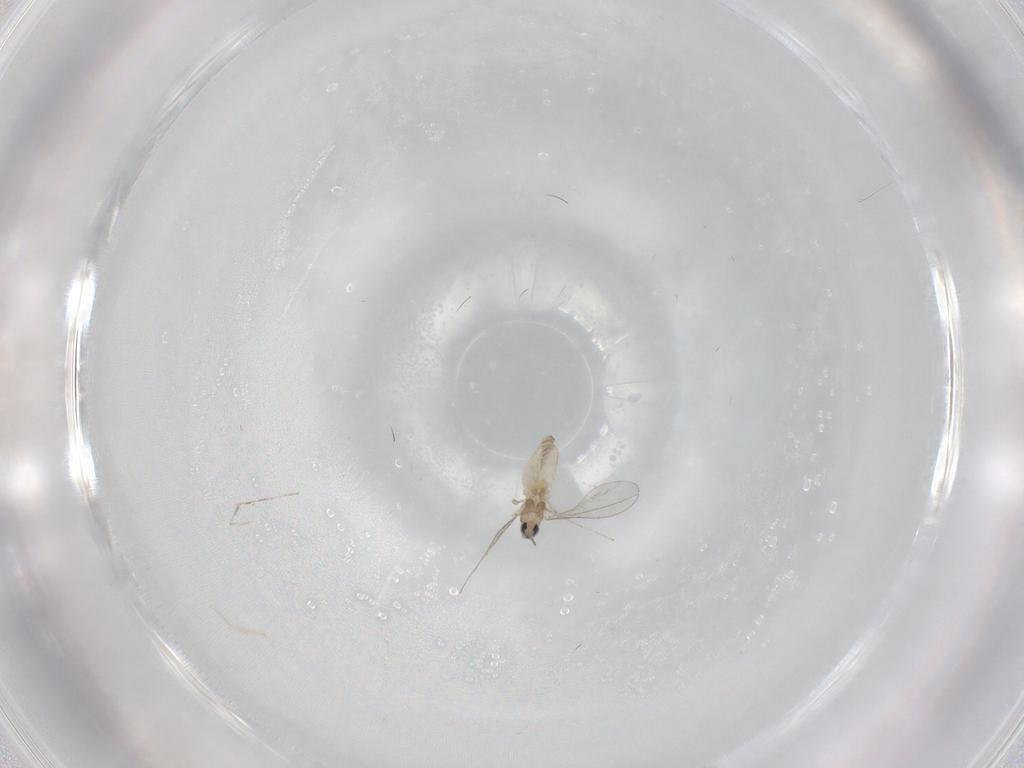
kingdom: Animalia
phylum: Arthropoda
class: Insecta
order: Diptera
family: Cecidomyiidae
